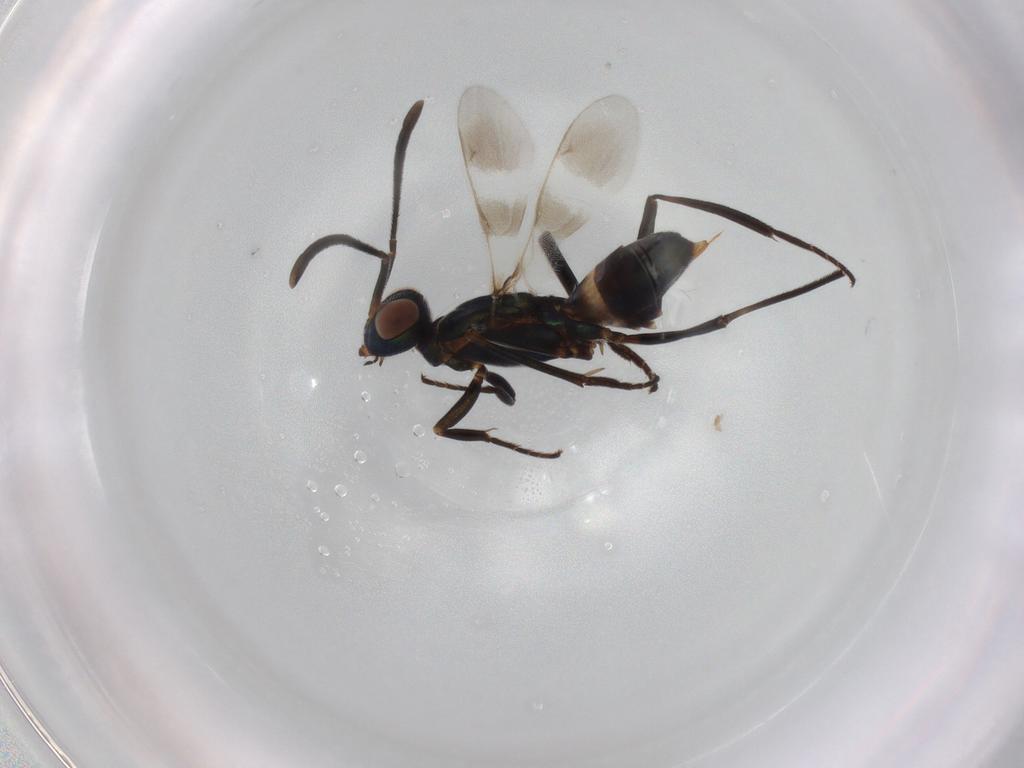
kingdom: Animalia
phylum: Arthropoda
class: Insecta
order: Hymenoptera
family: Eupelmidae
